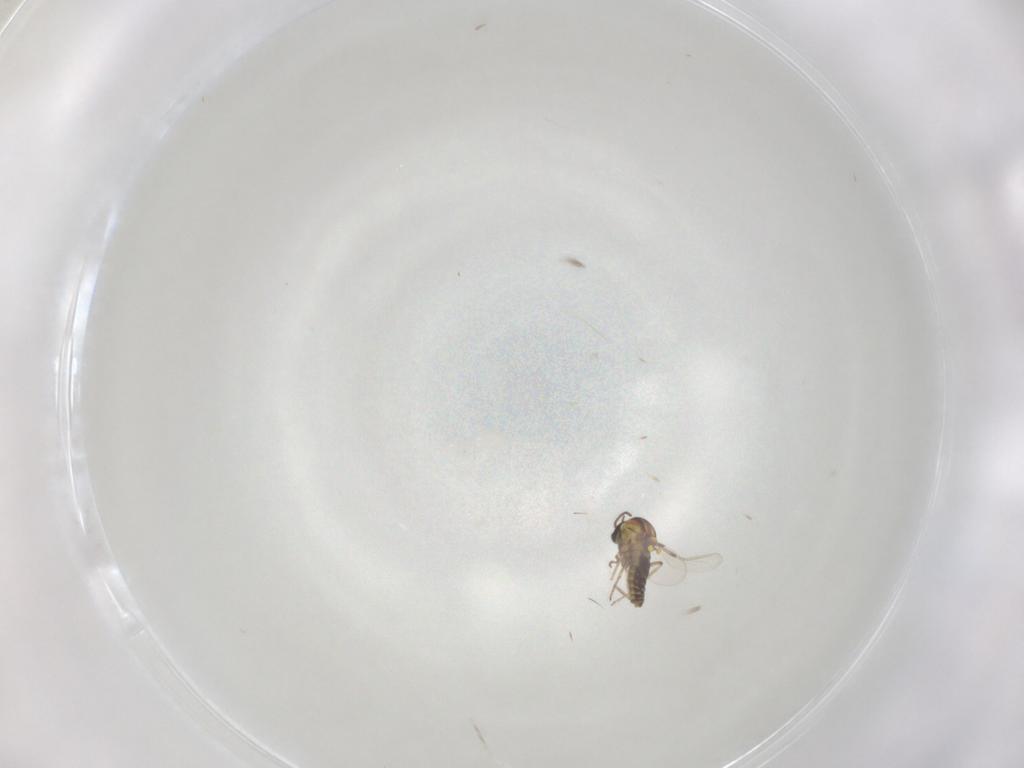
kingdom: Animalia
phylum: Arthropoda
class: Insecta
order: Diptera
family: Ceratopogonidae
